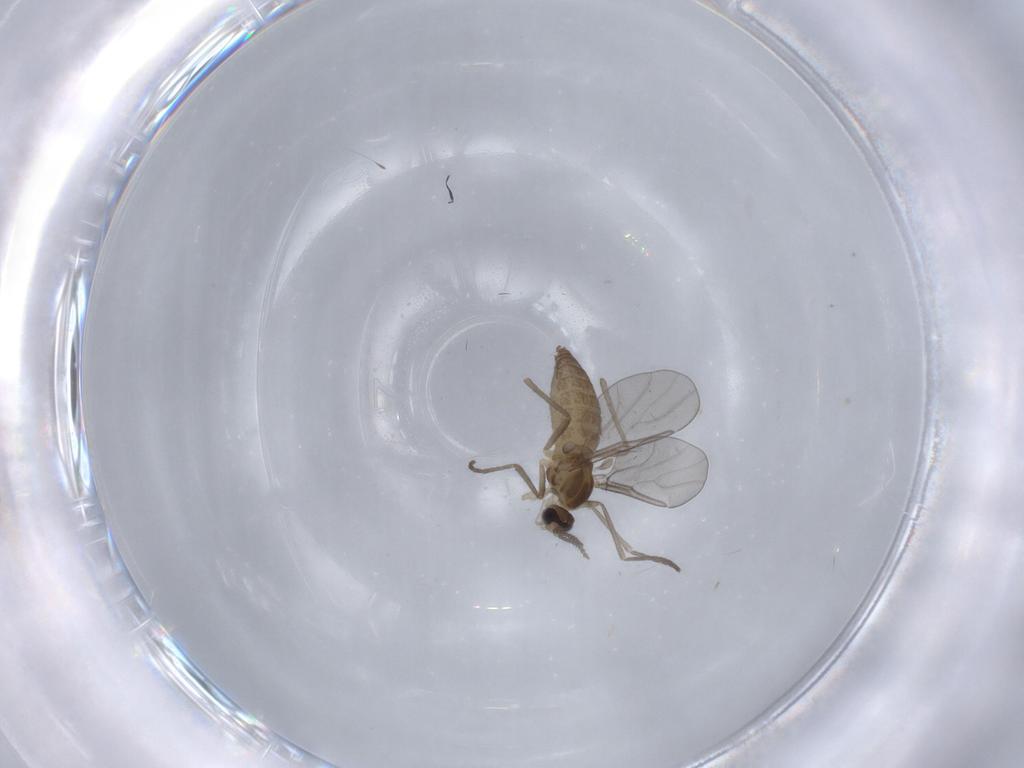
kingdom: Animalia
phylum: Arthropoda
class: Insecta
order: Diptera
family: Cecidomyiidae
